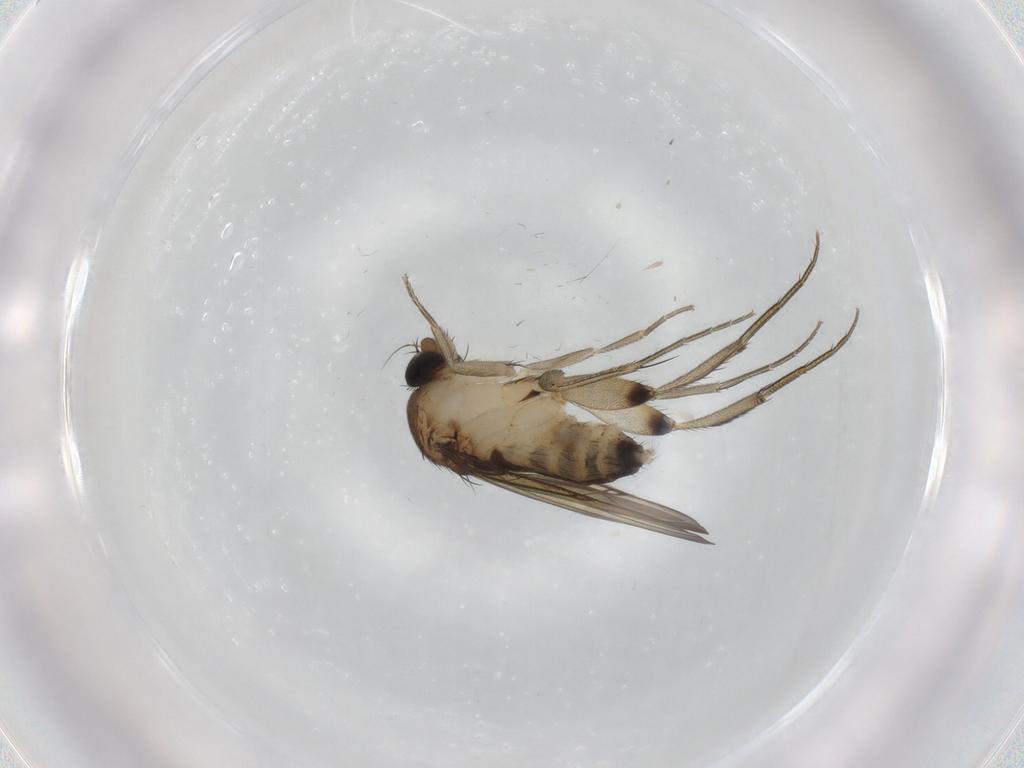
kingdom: Animalia
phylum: Arthropoda
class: Insecta
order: Diptera
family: Phoridae
